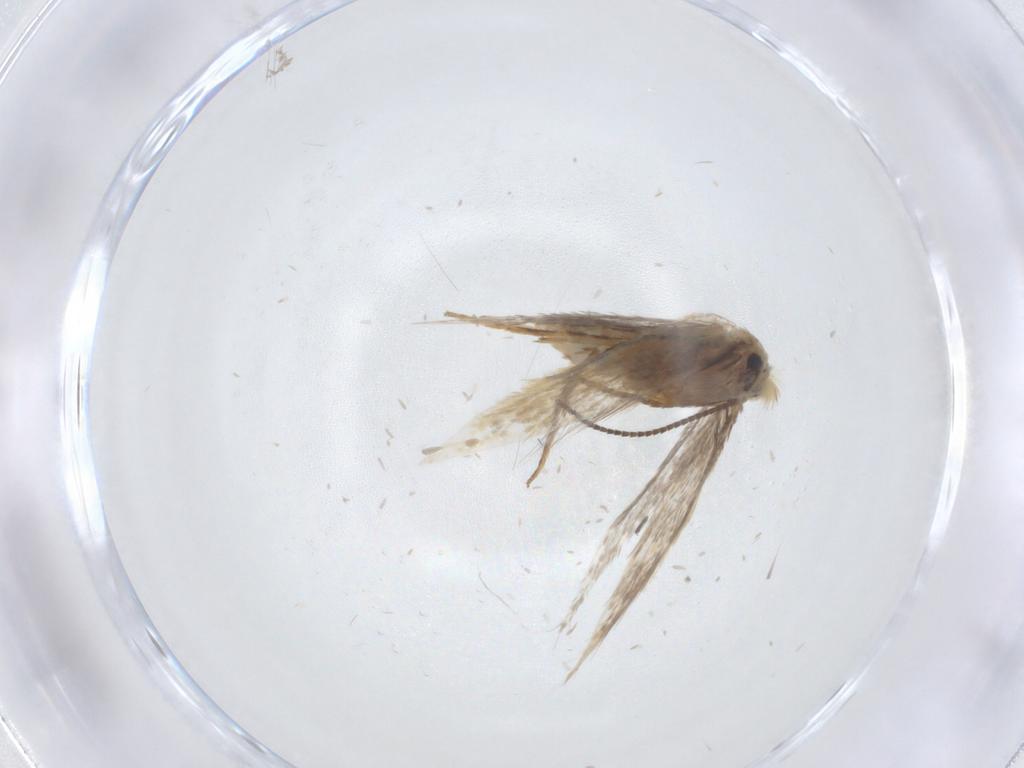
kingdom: Animalia
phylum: Arthropoda
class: Insecta
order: Lepidoptera
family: Nepticulidae
